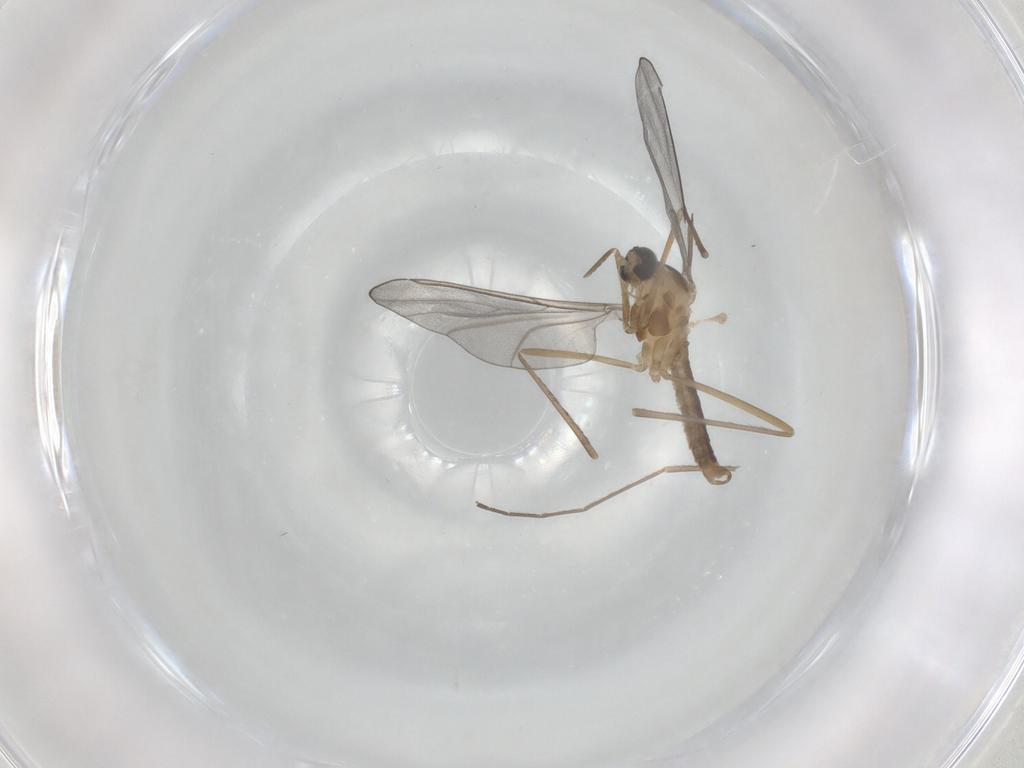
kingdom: Animalia
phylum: Arthropoda
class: Insecta
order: Diptera
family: Cecidomyiidae
